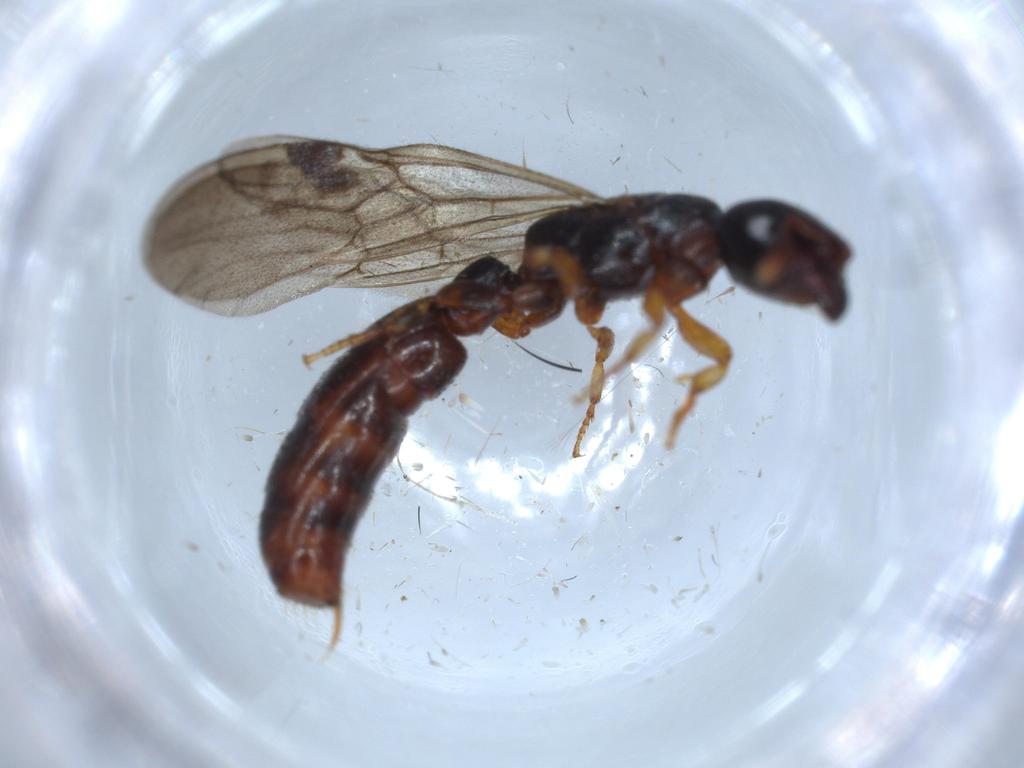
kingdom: Animalia
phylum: Arthropoda
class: Insecta
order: Hymenoptera
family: Formicidae
